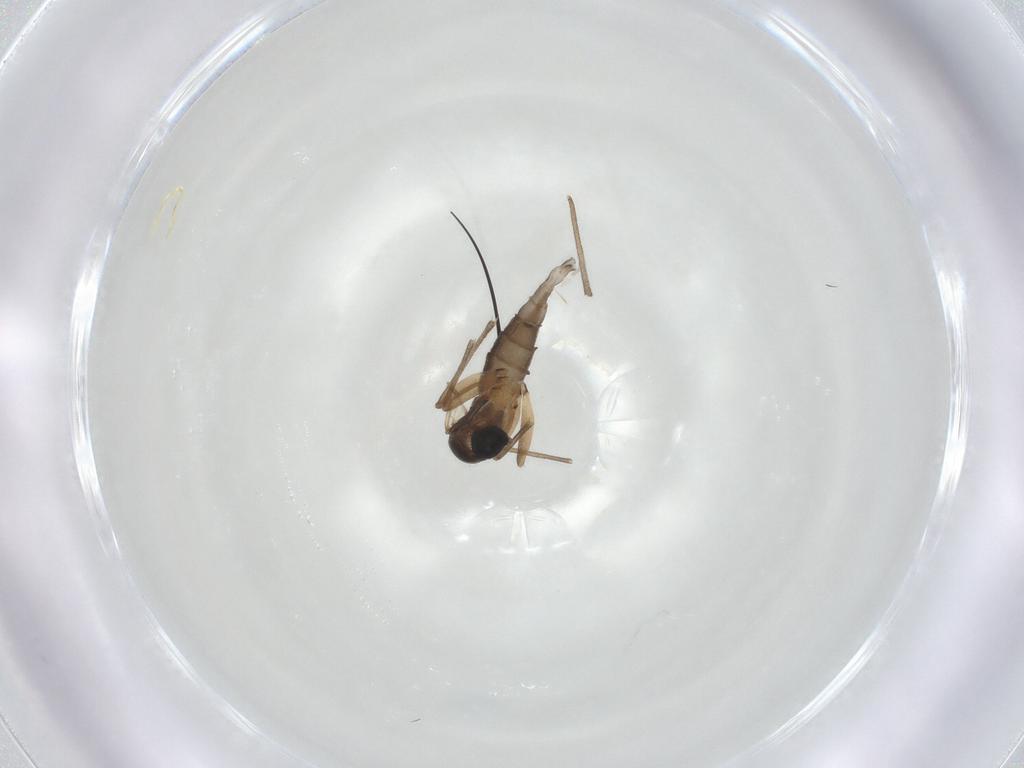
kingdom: Animalia
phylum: Arthropoda
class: Insecta
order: Diptera
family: Sciaridae
